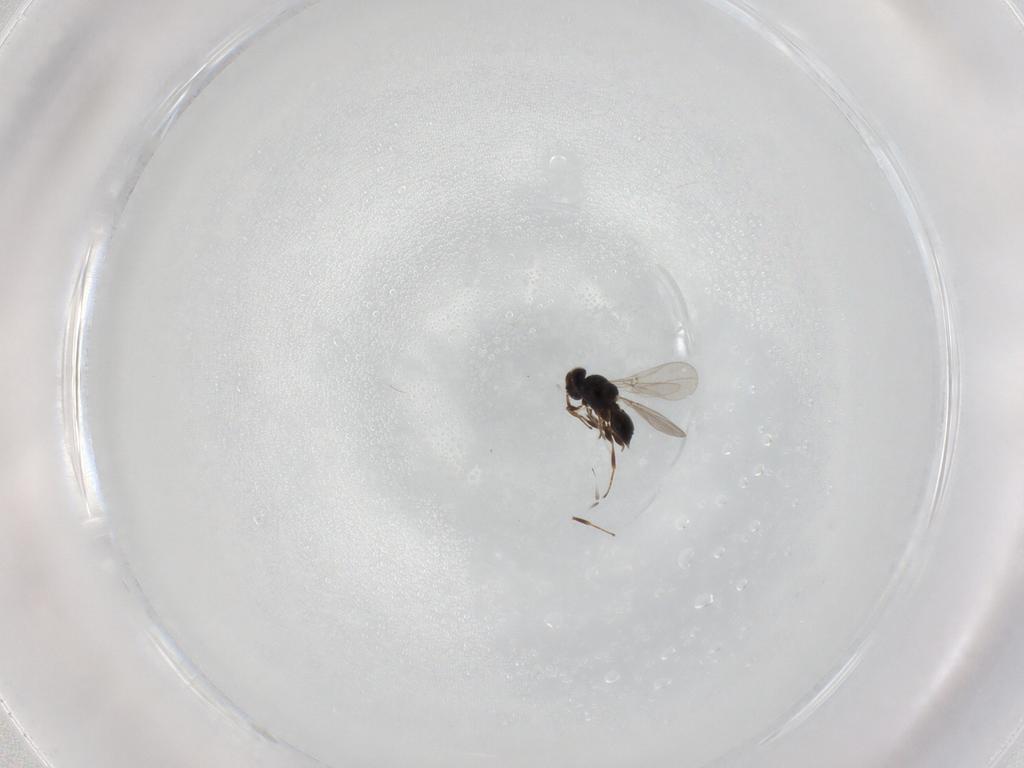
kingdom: Animalia
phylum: Arthropoda
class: Insecta
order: Hymenoptera
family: Platygastridae
